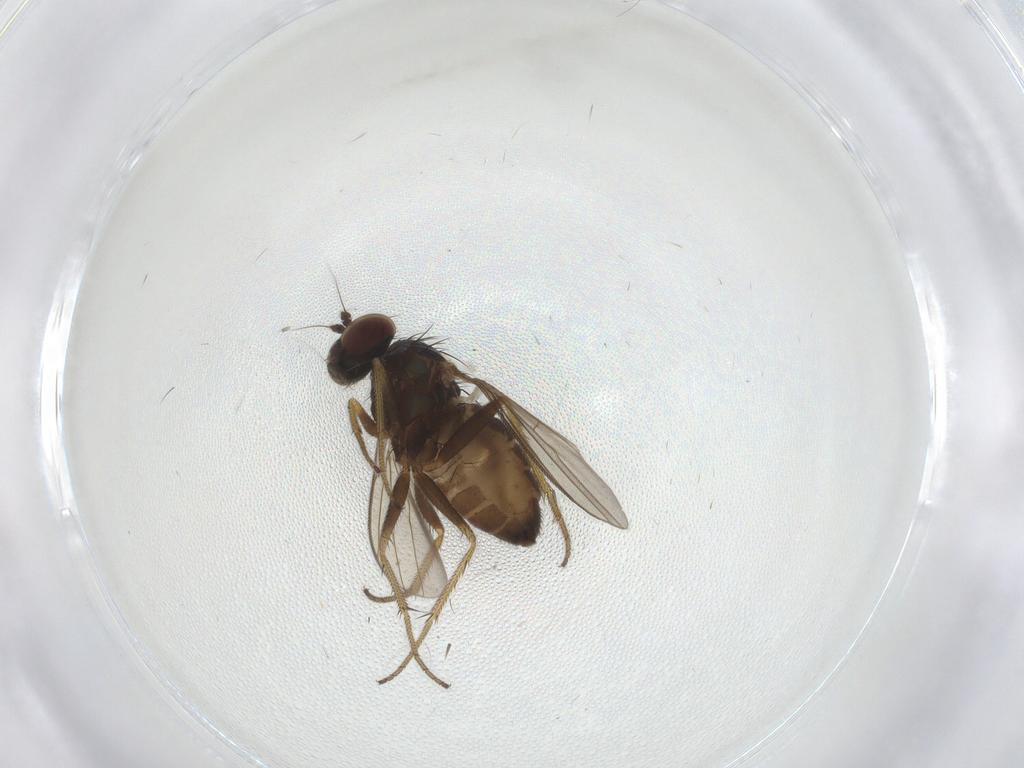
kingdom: Animalia
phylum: Arthropoda
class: Insecta
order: Diptera
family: Dolichopodidae
